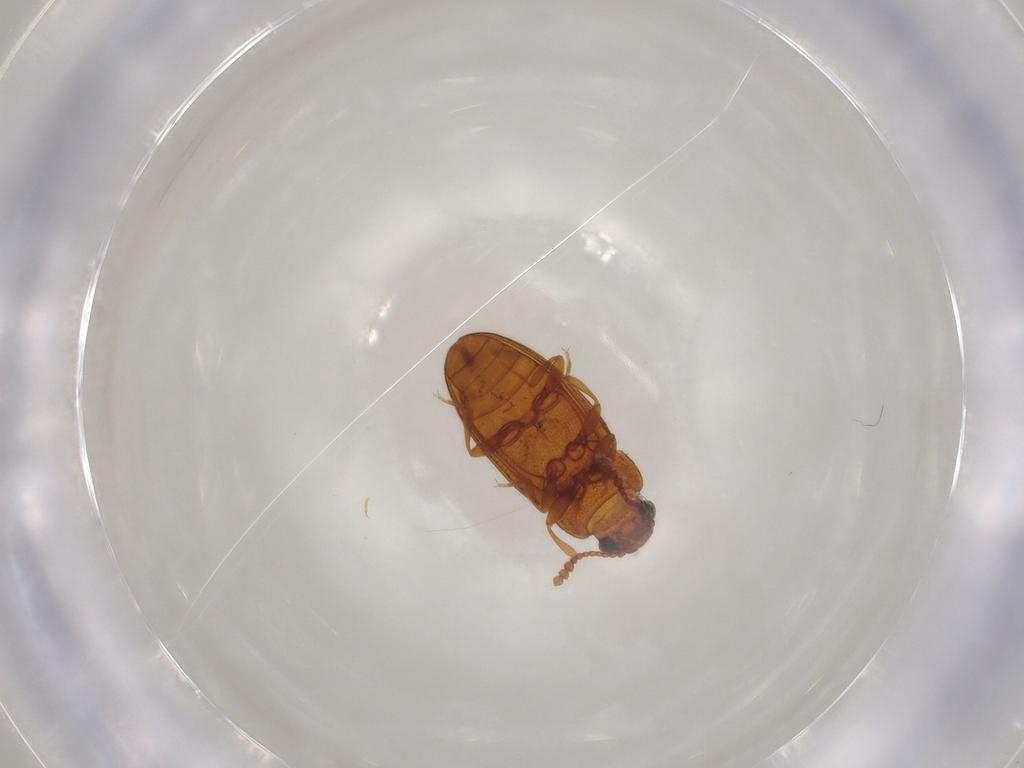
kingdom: Animalia
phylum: Arthropoda
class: Insecta
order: Coleoptera
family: Erotylidae
